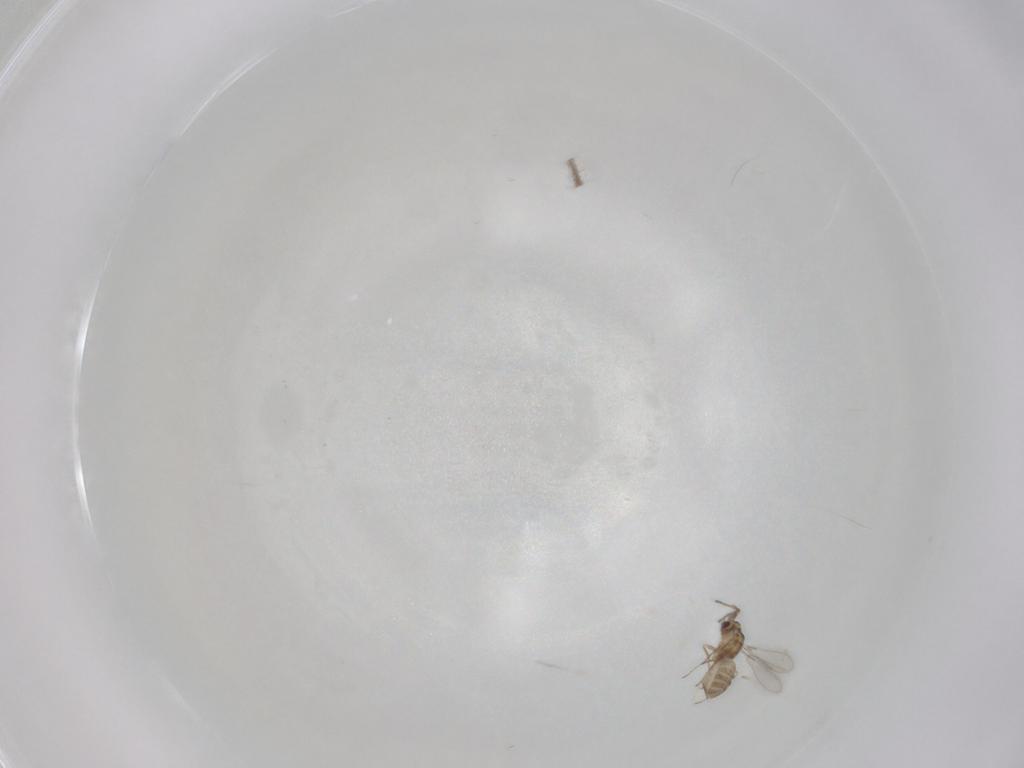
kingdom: Animalia
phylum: Arthropoda
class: Insecta
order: Hymenoptera
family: Mymaridae
